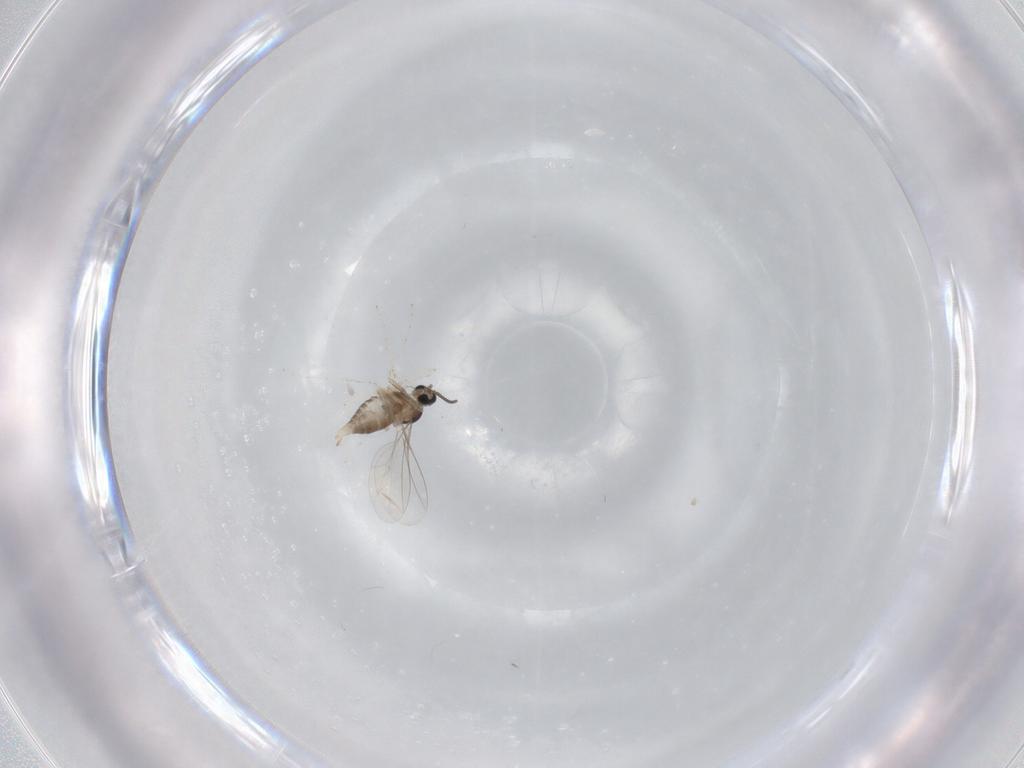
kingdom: Animalia
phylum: Arthropoda
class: Insecta
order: Diptera
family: Cecidomyiidae
